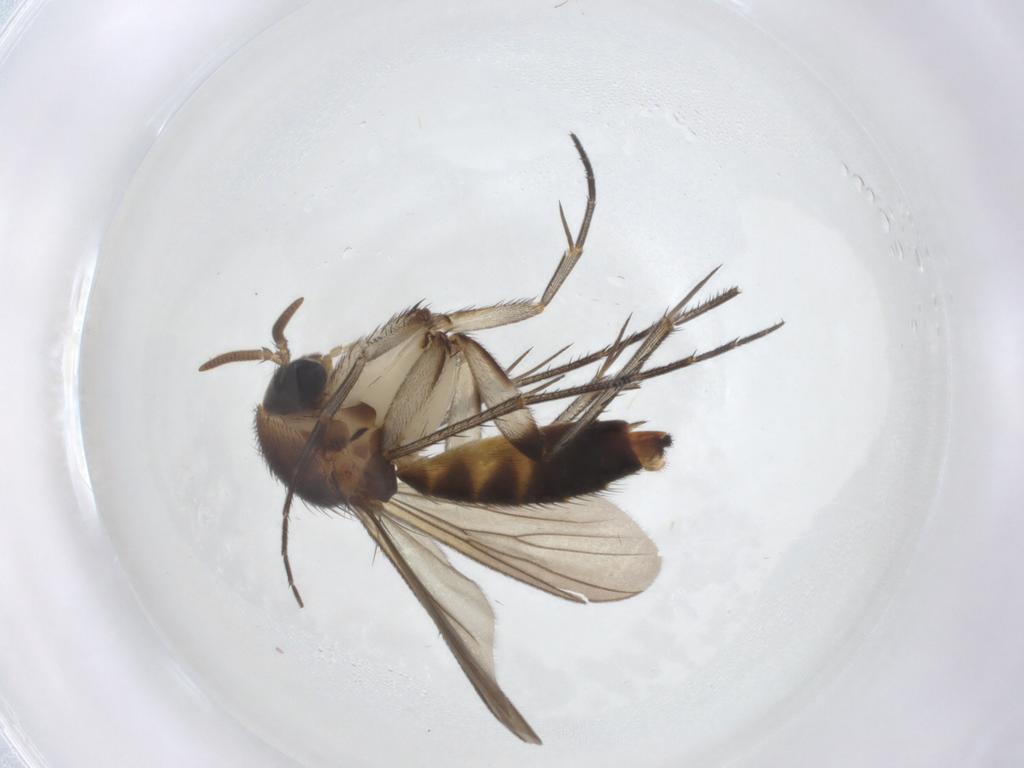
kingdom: Animalia
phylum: Arthropoda
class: Insecta
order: Diptera
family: Mycetophilidae
